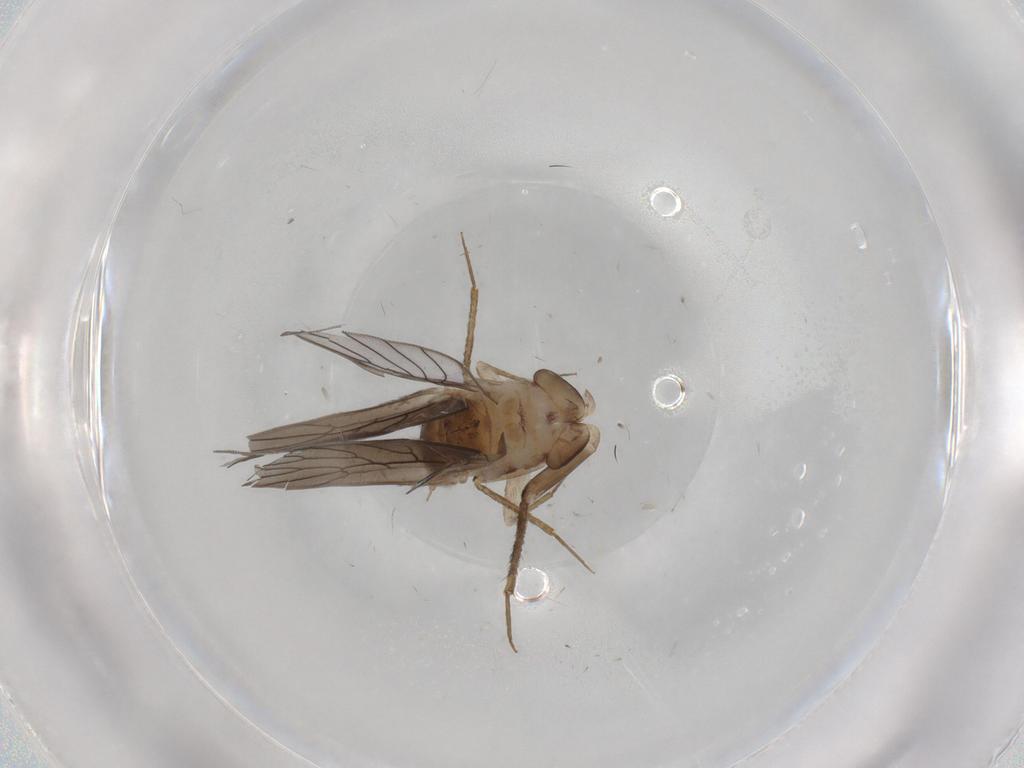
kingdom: Animalia
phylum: Arthropoda
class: Insecta
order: Psocodea
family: Lepidopsocidae
